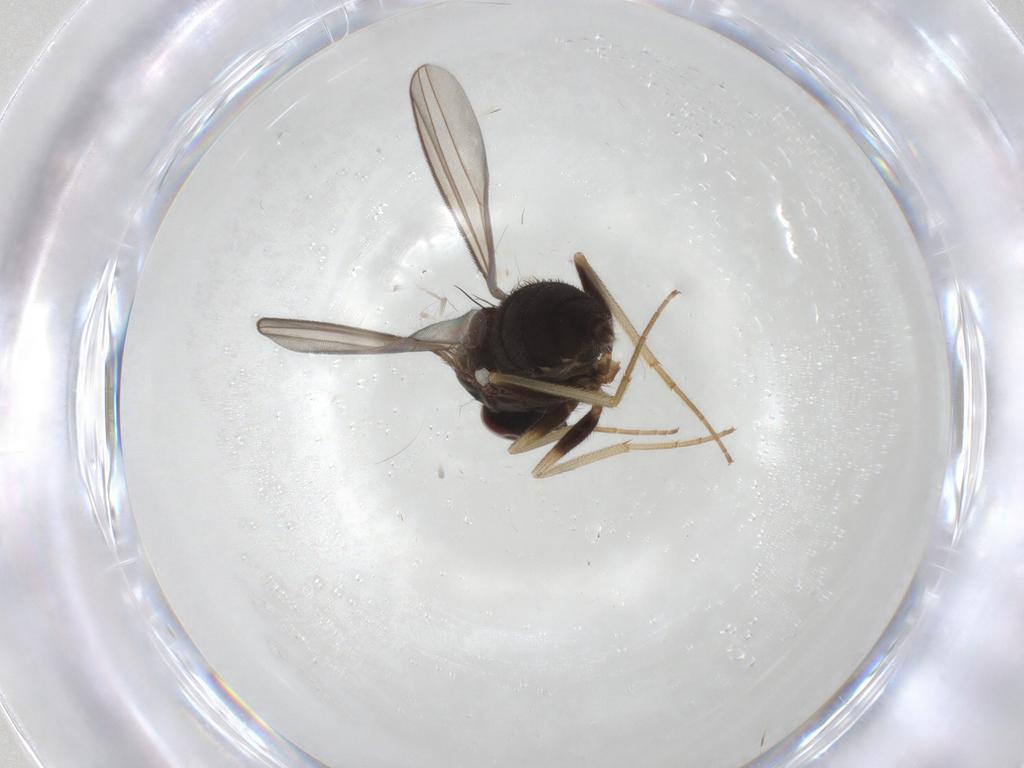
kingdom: Animalia
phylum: Arthropoda
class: Insecta
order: Diptera
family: Dolichopodidae
